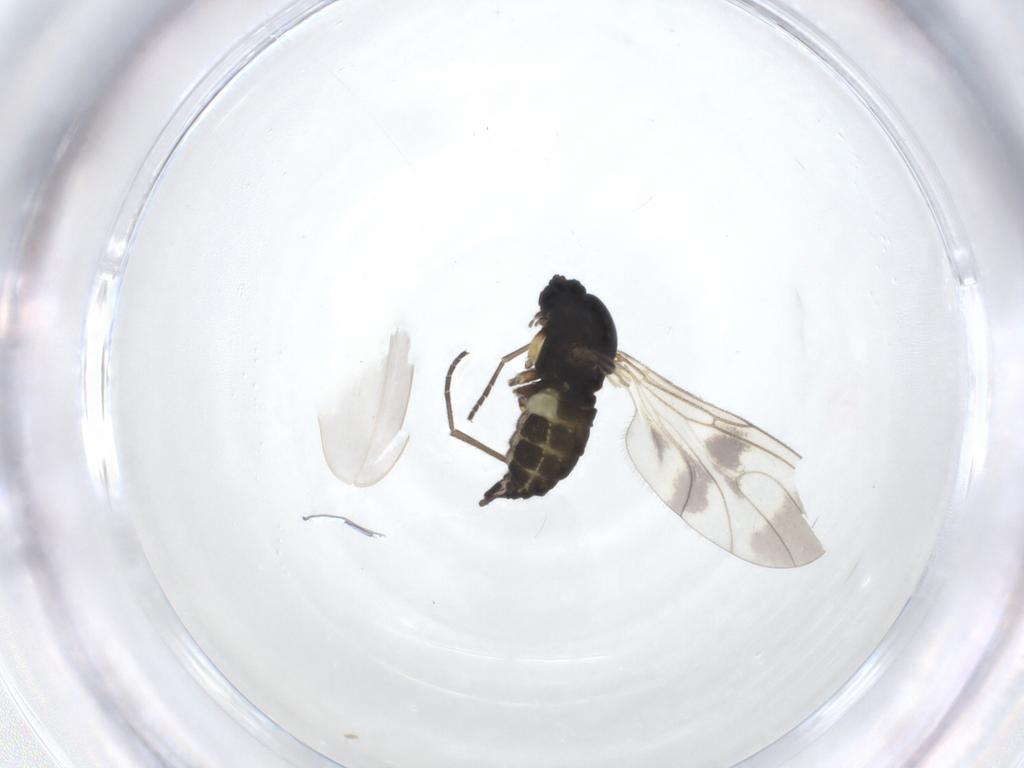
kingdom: Animalia
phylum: Arthropoda
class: Insecta
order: Diptera
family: Sciaridae
